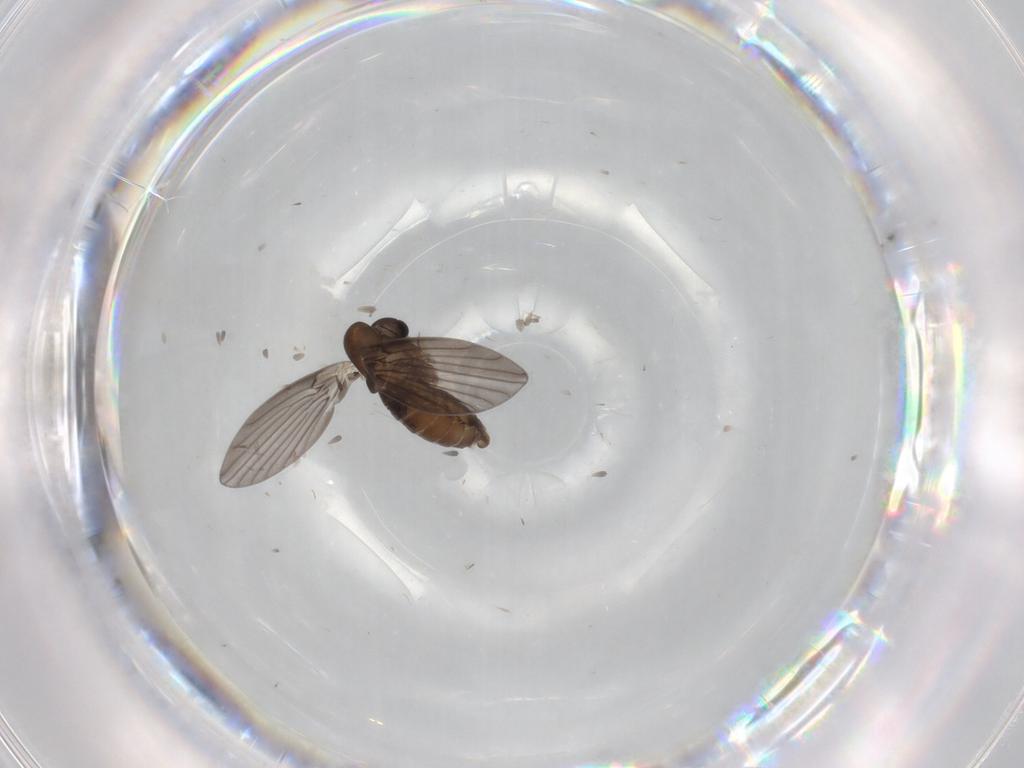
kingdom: Animalia
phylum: Arthropoda
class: Insecta
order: Diptera
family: Psychodidae
